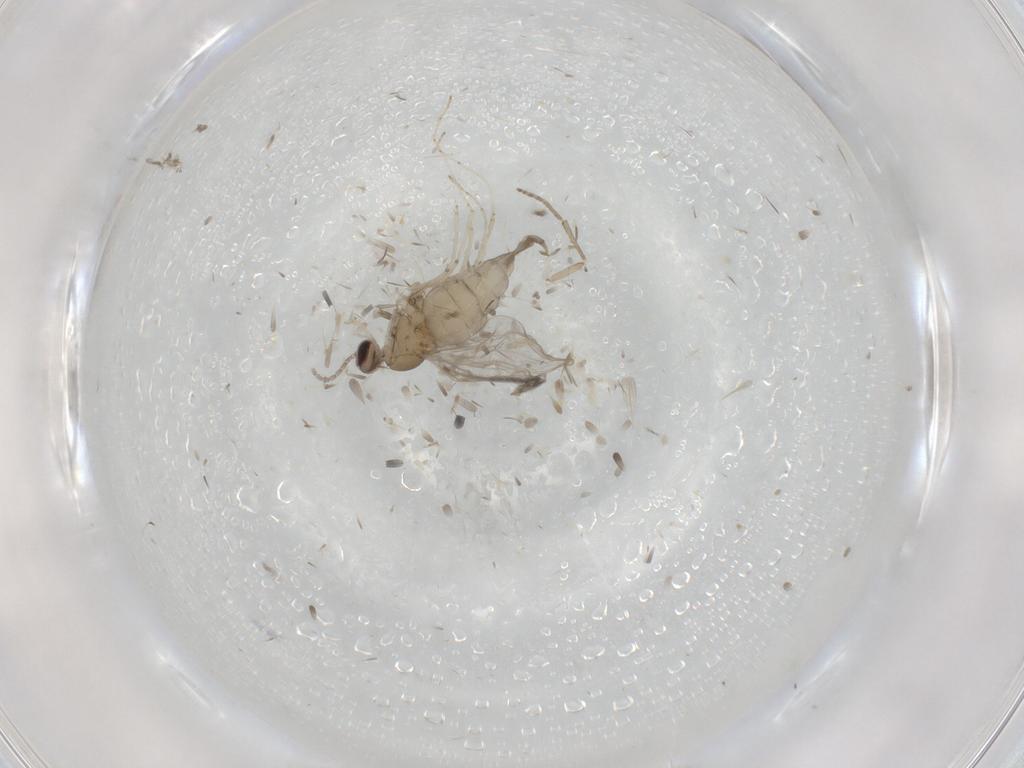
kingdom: Animalia
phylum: Arthropoda
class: Insecta
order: Diptera
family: Cecidomyiidae
